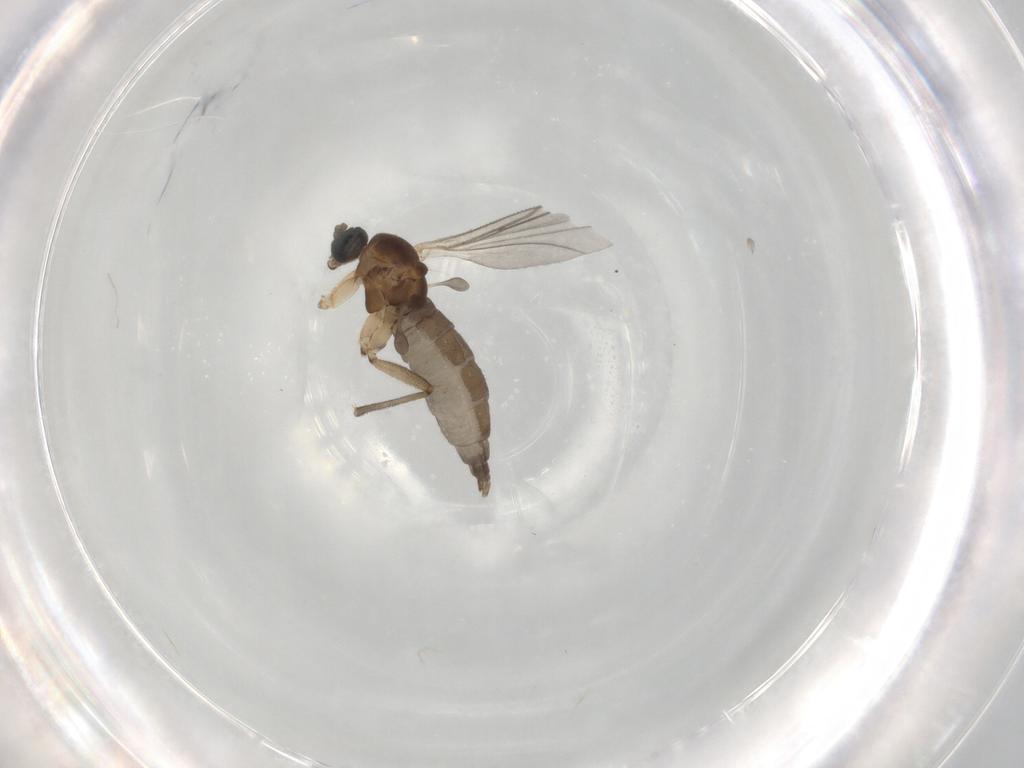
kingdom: Animalia
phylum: Arthropoda
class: Insecta
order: Diptera
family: Sciaridae
